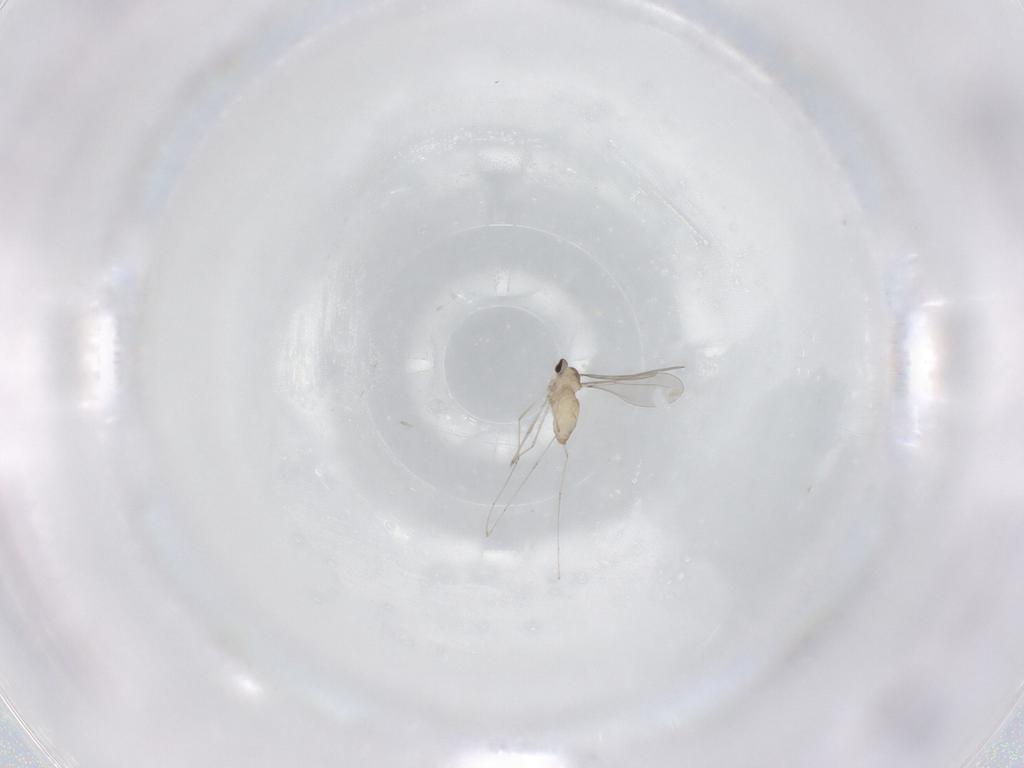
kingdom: Animalia
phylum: Arthropoda
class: Insecta
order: Diptera
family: Cecidomyiidae
